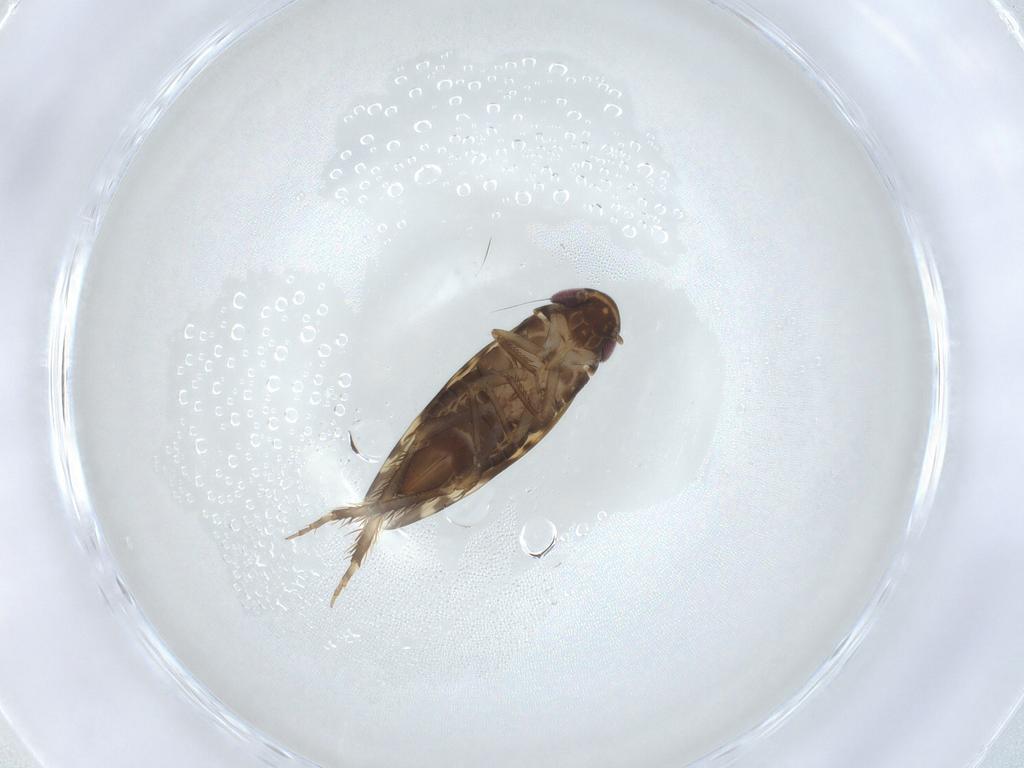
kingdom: Animalia
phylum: Arthropoda
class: Insecta
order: Hemiptera
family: Cicadellidae
